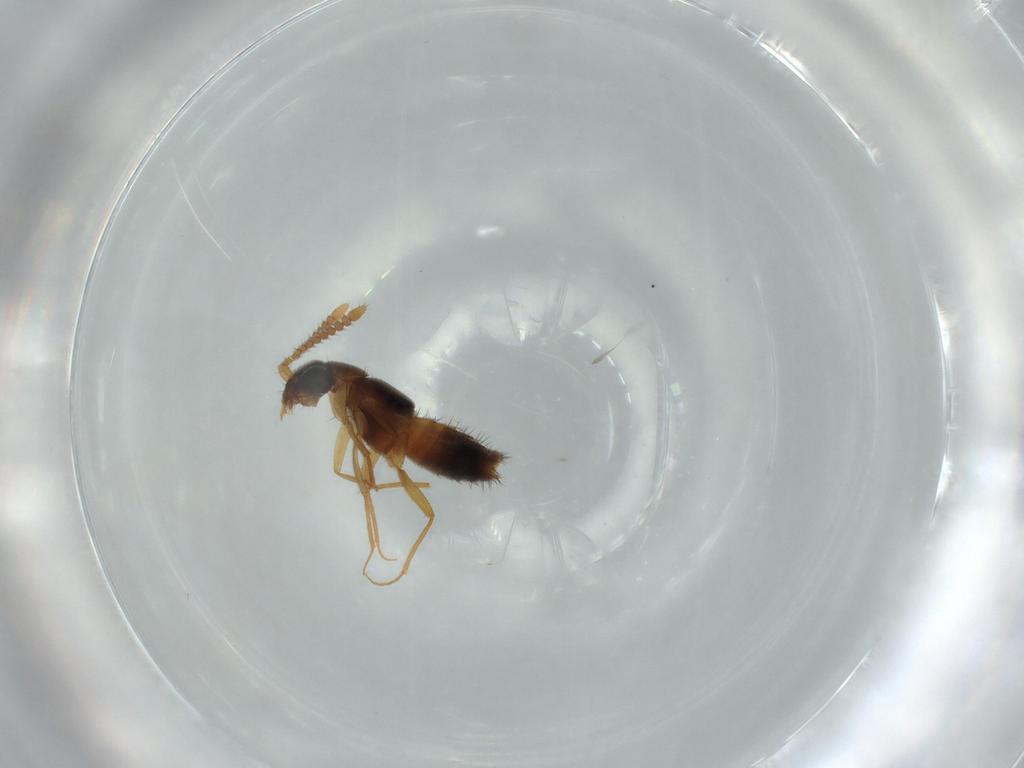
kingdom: Animalia
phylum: Arthropoda
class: Insecta
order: Coleoptera
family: Staphylinidae
